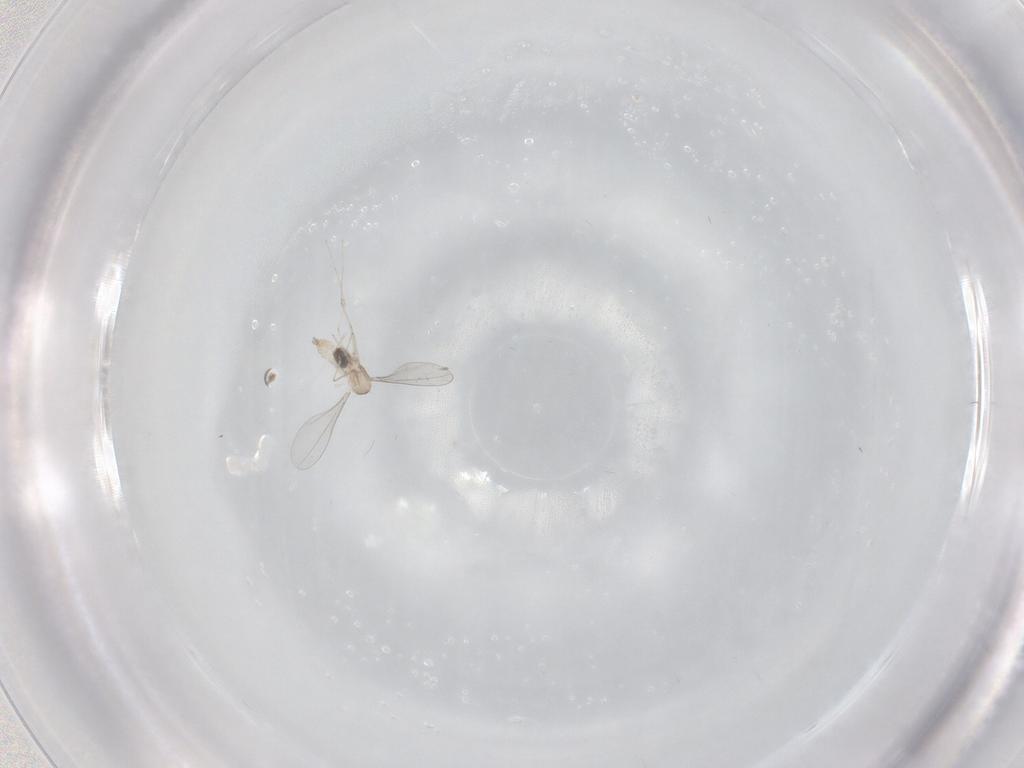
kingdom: Animalia
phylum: Arthropoda
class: Insecta
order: Diptera
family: Cecidomyiidae
